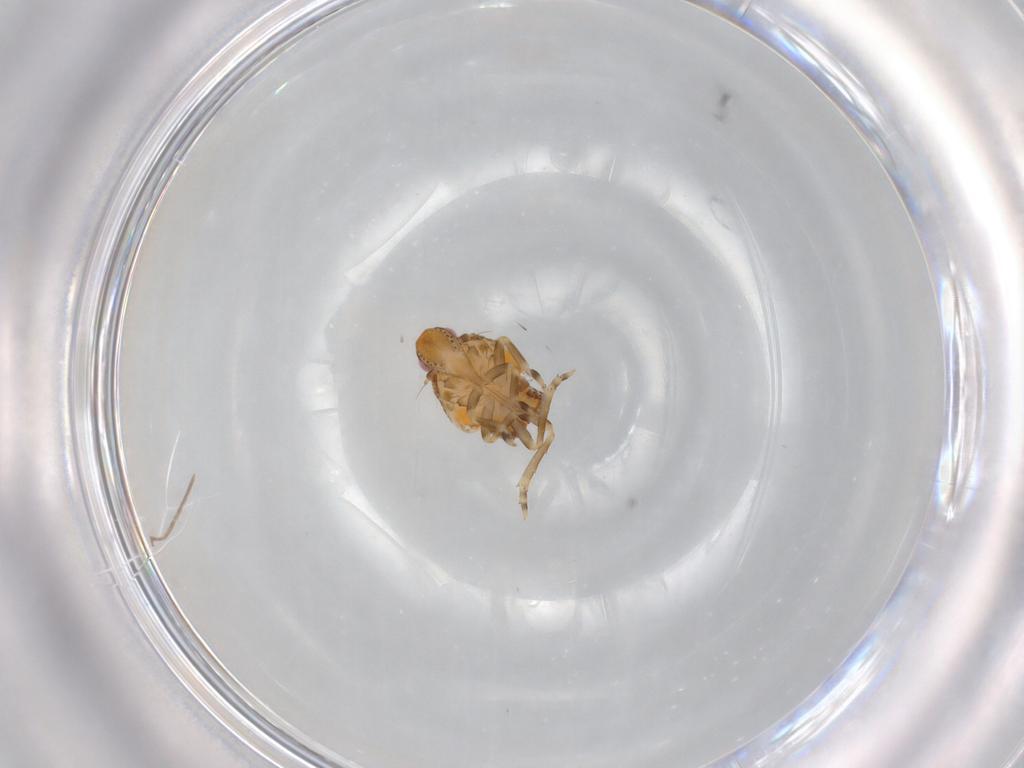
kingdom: Animalia
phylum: Arthropoda
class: Insecta
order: Hemiptera
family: Flatidae
